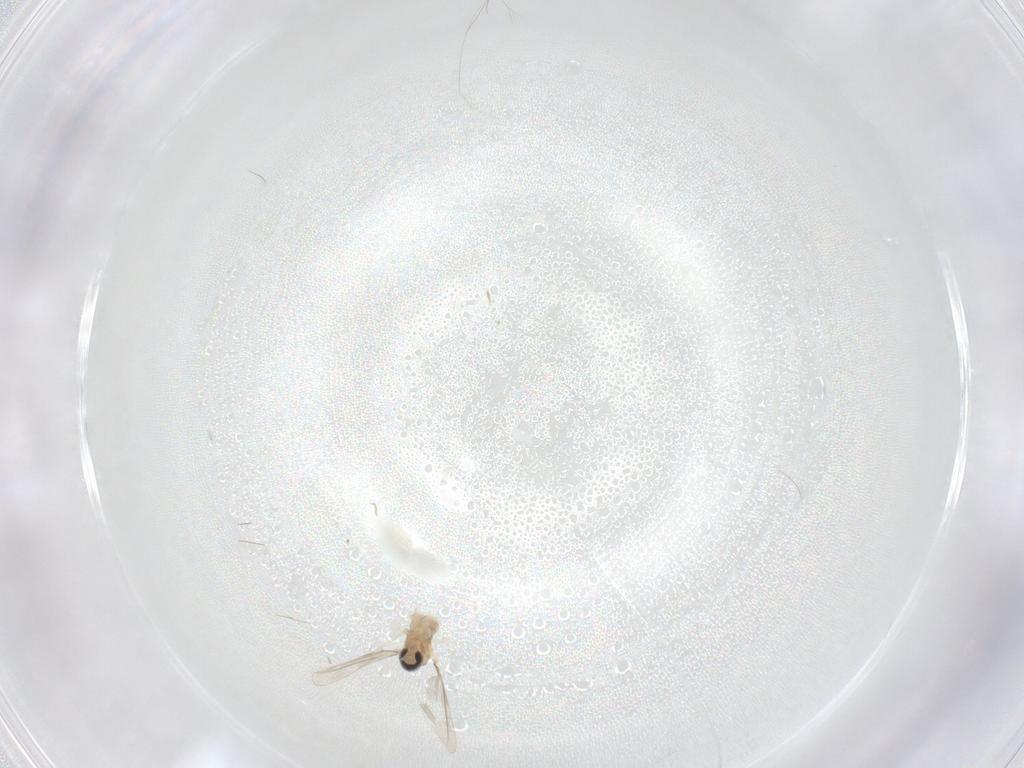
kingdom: Animalia
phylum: Arthropoda
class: Insecta
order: Diptera
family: Cecidomyiidae
